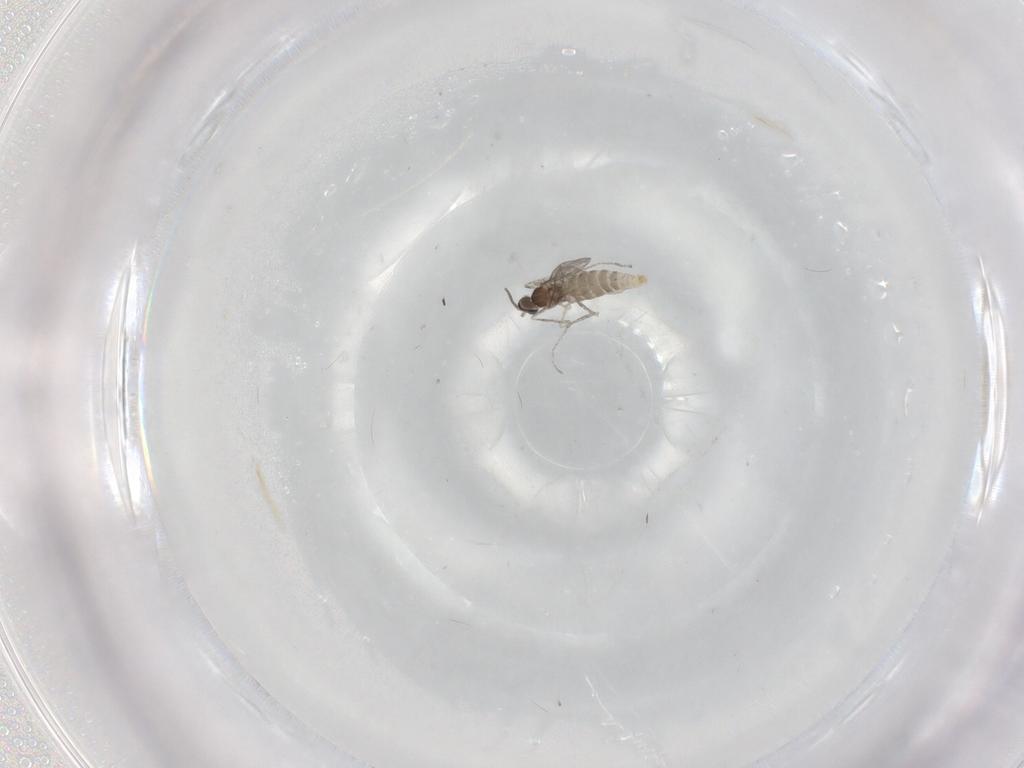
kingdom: Animalia
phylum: Arthropoda
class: Insecta
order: Diptera
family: Cecidomyiidae
